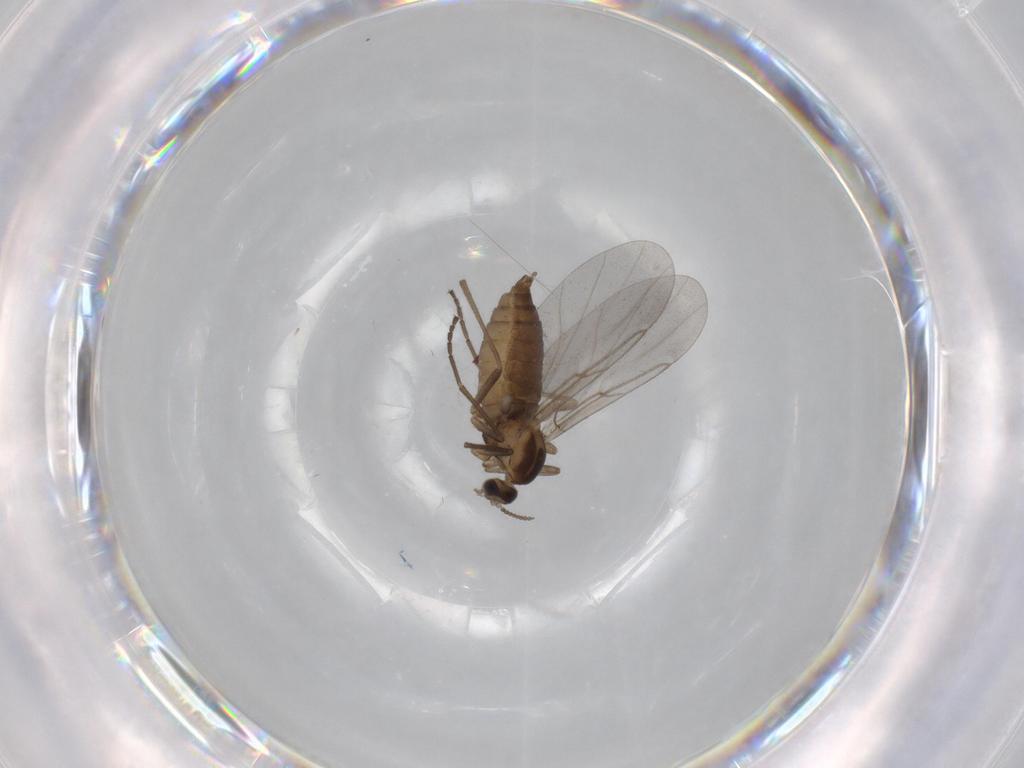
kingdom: Animalia
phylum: Arthropoda
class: Insecta
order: Diptera
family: Cecidomyiidae
